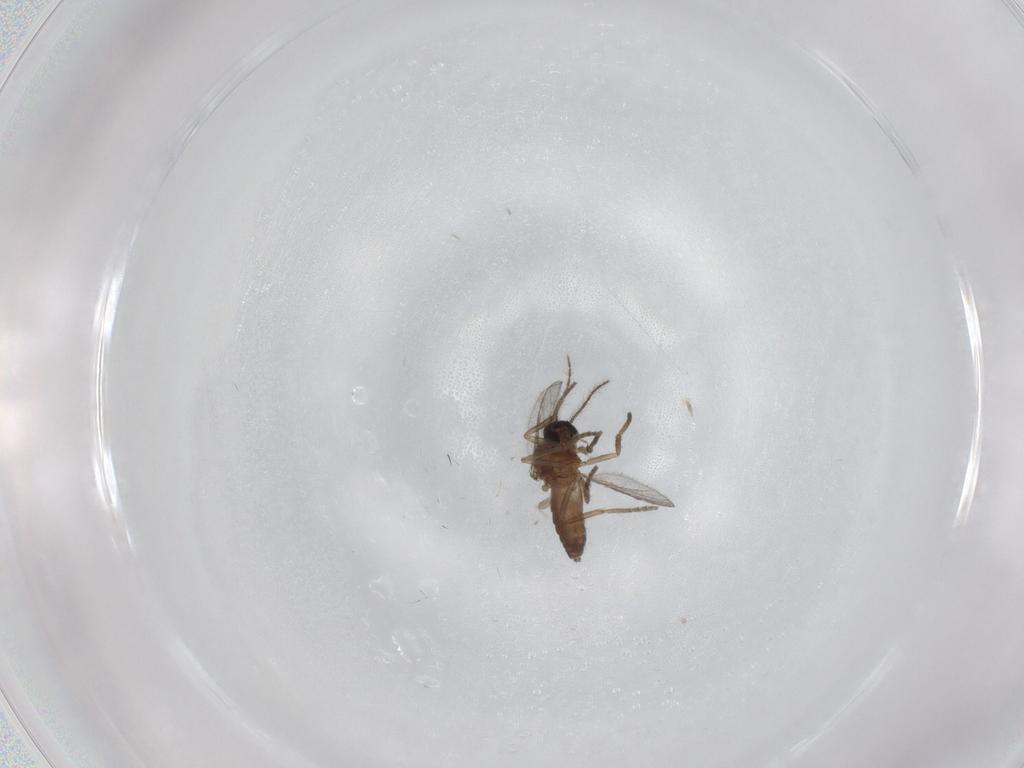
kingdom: Animalia
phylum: Arthropoda
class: Insecta
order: Diptera
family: Ceratopogonidae
